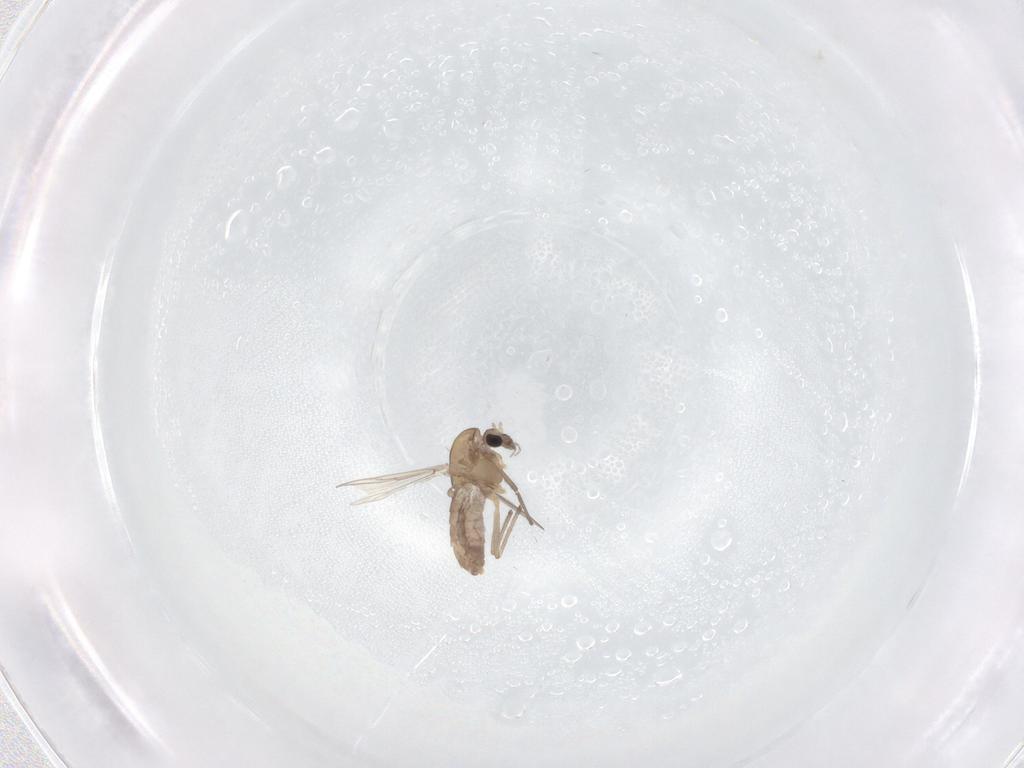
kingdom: Animalia
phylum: Arthropoda
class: Insecta
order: Diptera
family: Chironomidae
